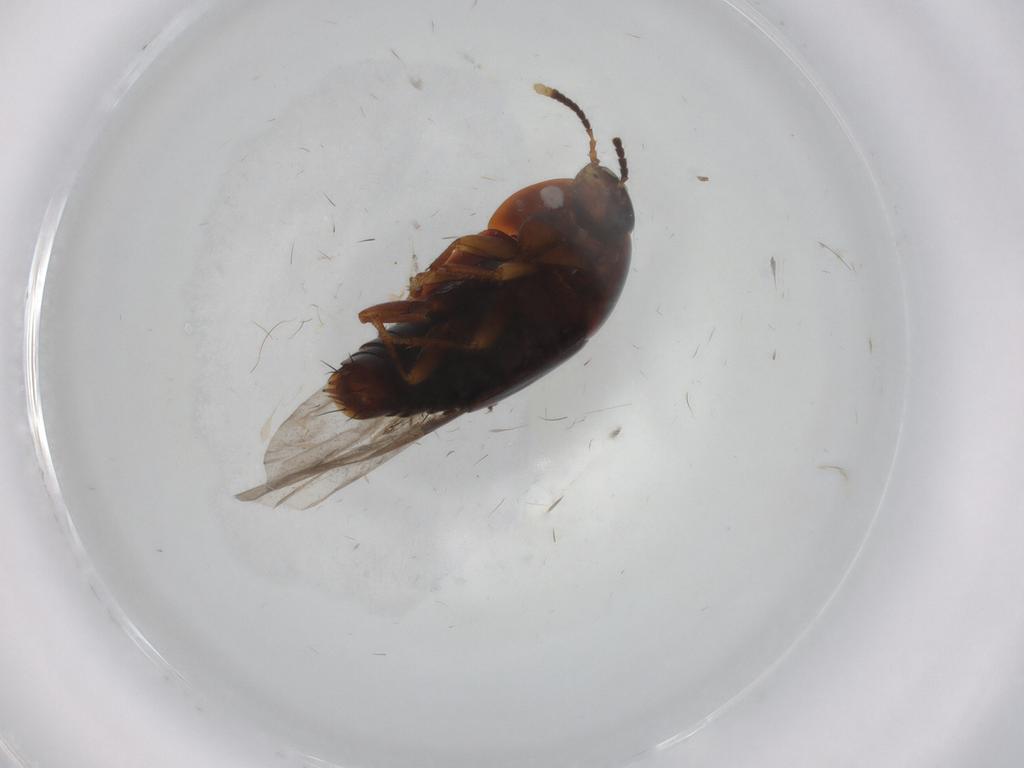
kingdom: Animalia
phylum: Arthropoda
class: Insecta
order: Coleoptera
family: Staphylinidae
